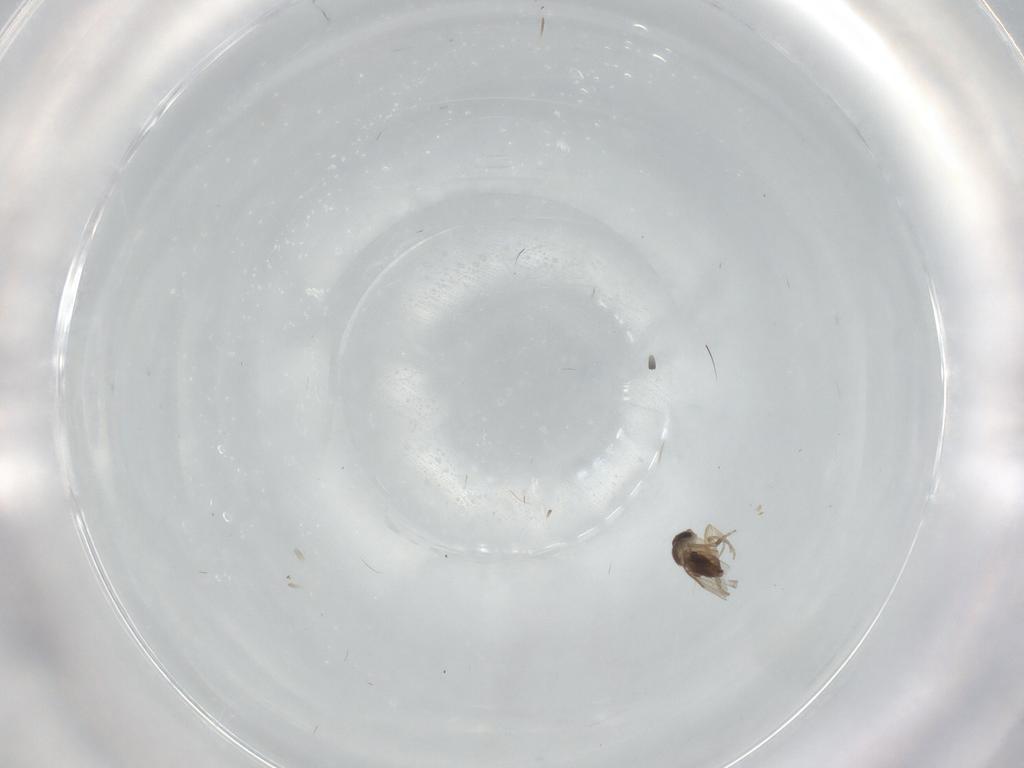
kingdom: Animalia
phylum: Arthropoda
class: Insecta
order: Diptera
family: Phoridae
